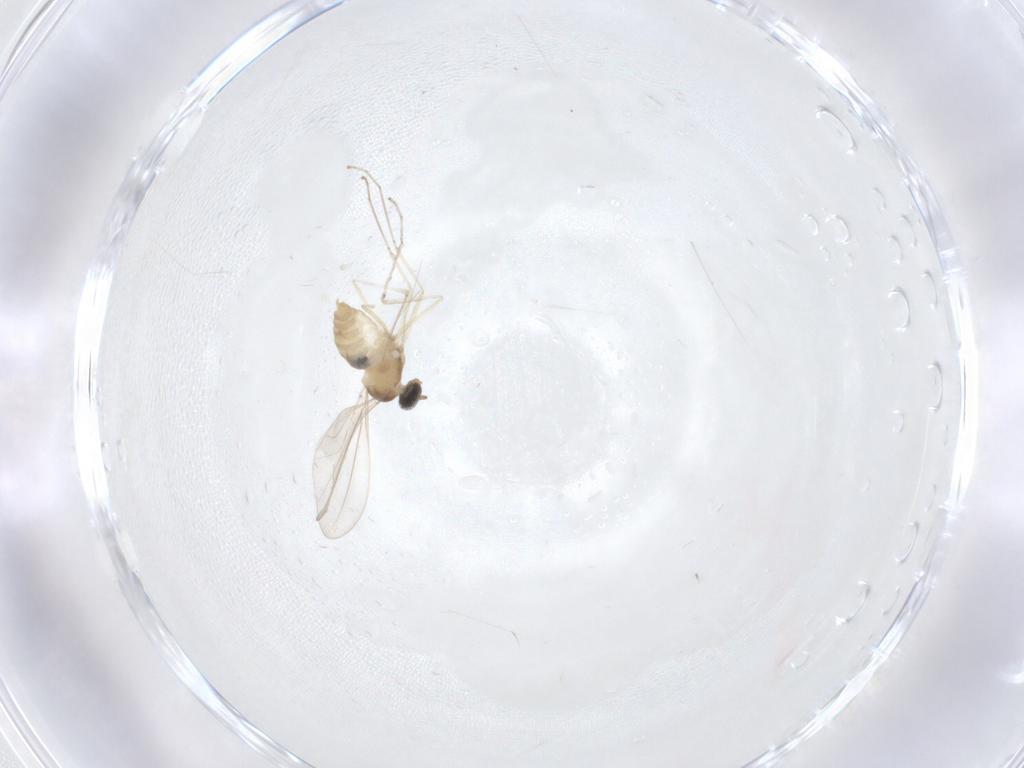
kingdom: Animalia
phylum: Arthropoda
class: Insecta
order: Diptera
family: Cecidomyiidae
